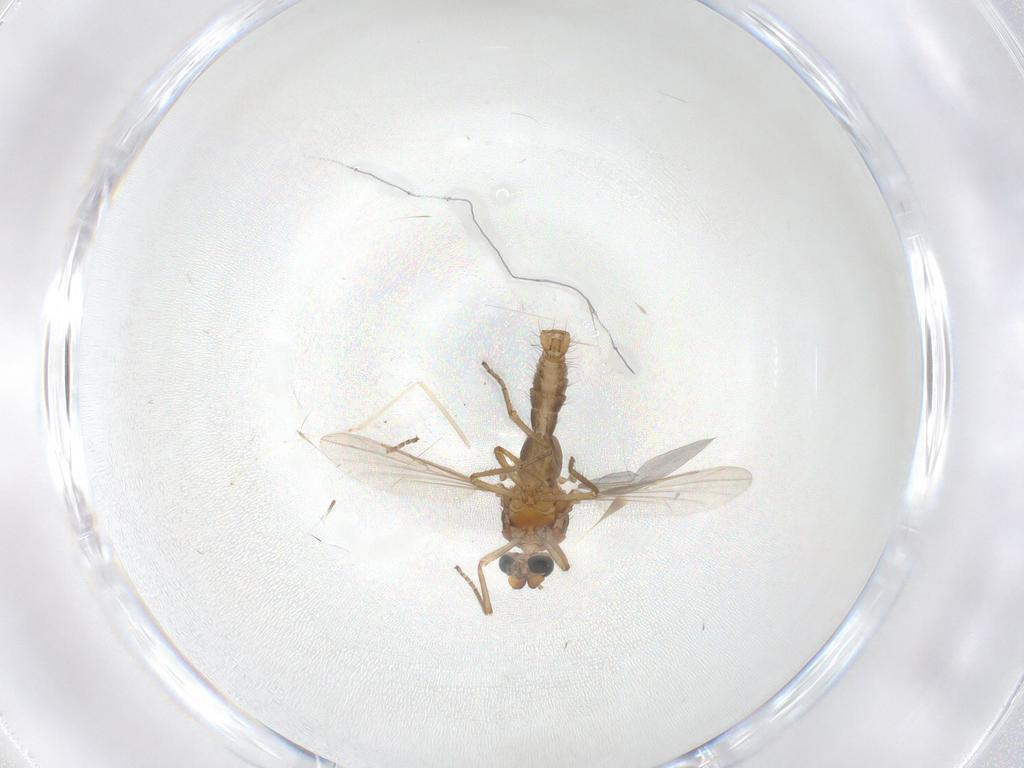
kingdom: Animalia
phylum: Arthropoda
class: Insecta
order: Diptera
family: Ceratopogonidae
